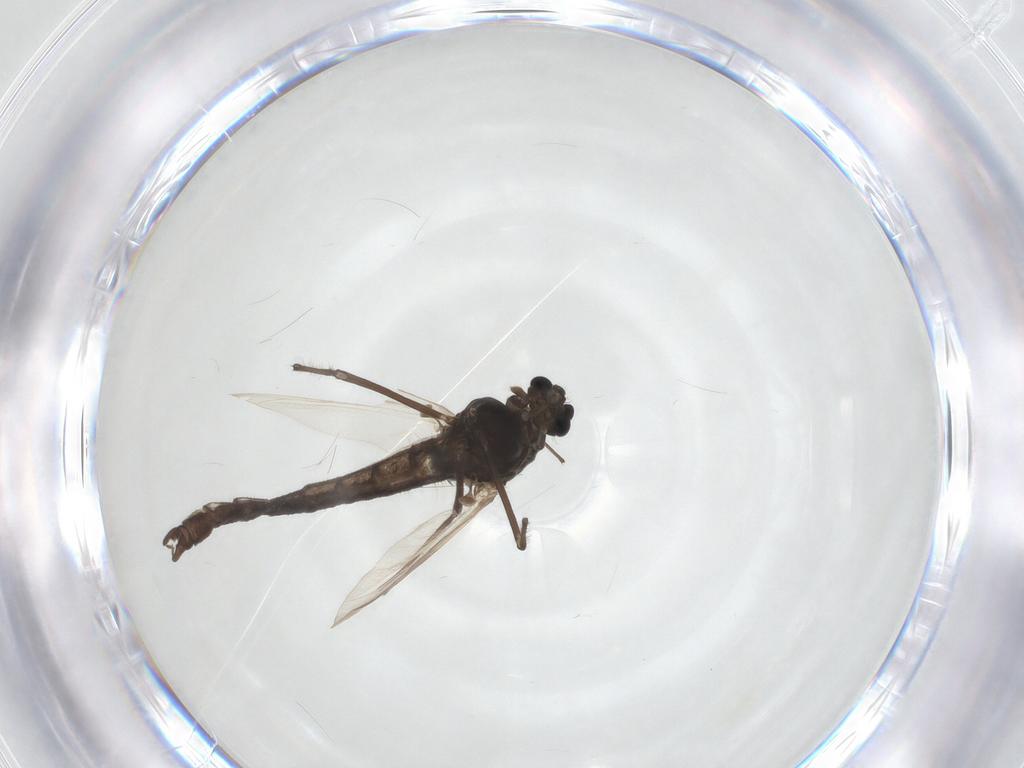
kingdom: Animalia
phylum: Arthropoda
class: Insecta
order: Diptera
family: Chironomidae
